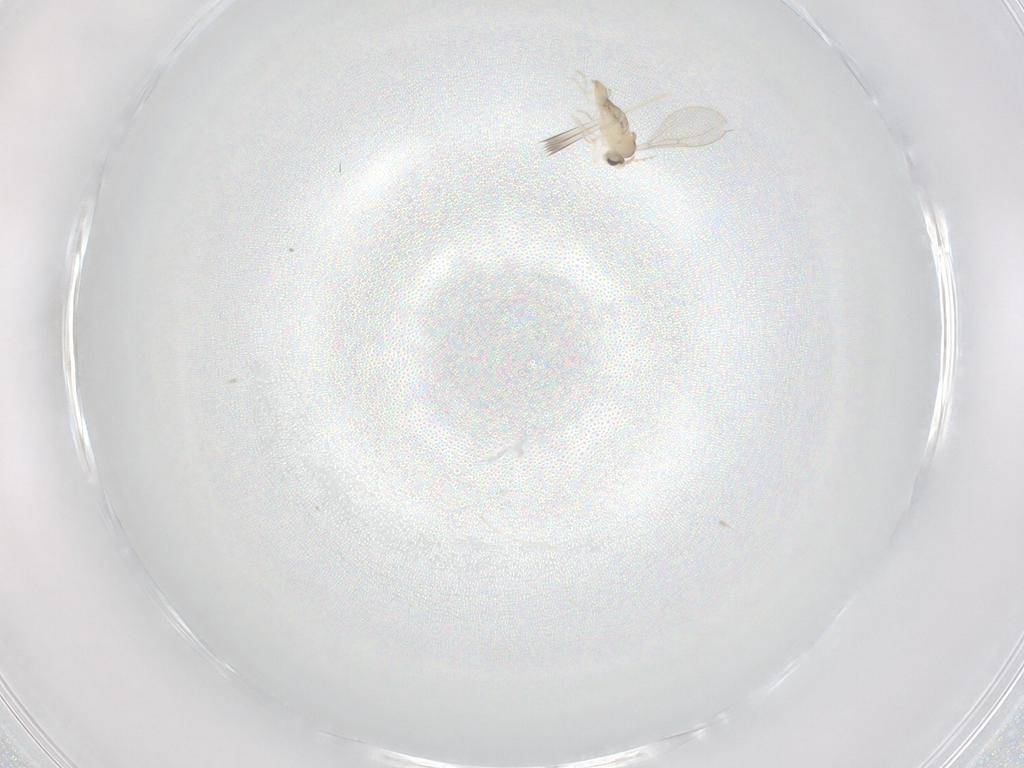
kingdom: Animalia
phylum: Arthropoda
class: Insecta
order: Diptera
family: Cecidomyiidae
